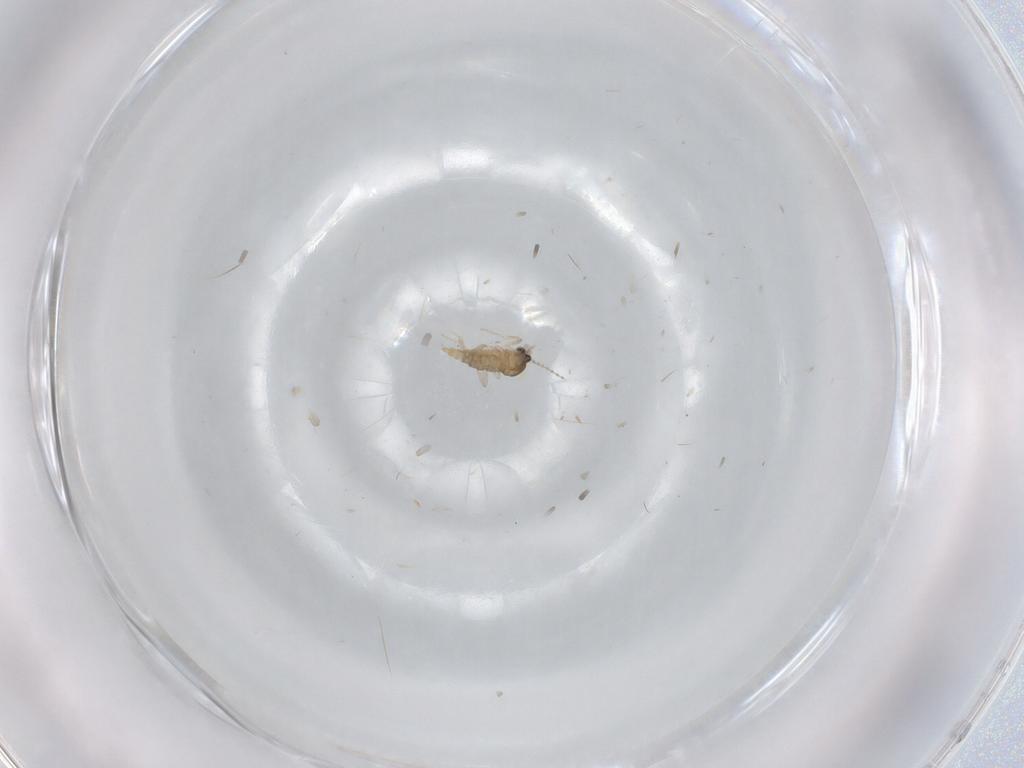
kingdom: Animalia
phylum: Arthropoda
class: Insecta
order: Diptera
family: Cecidomyiidae
